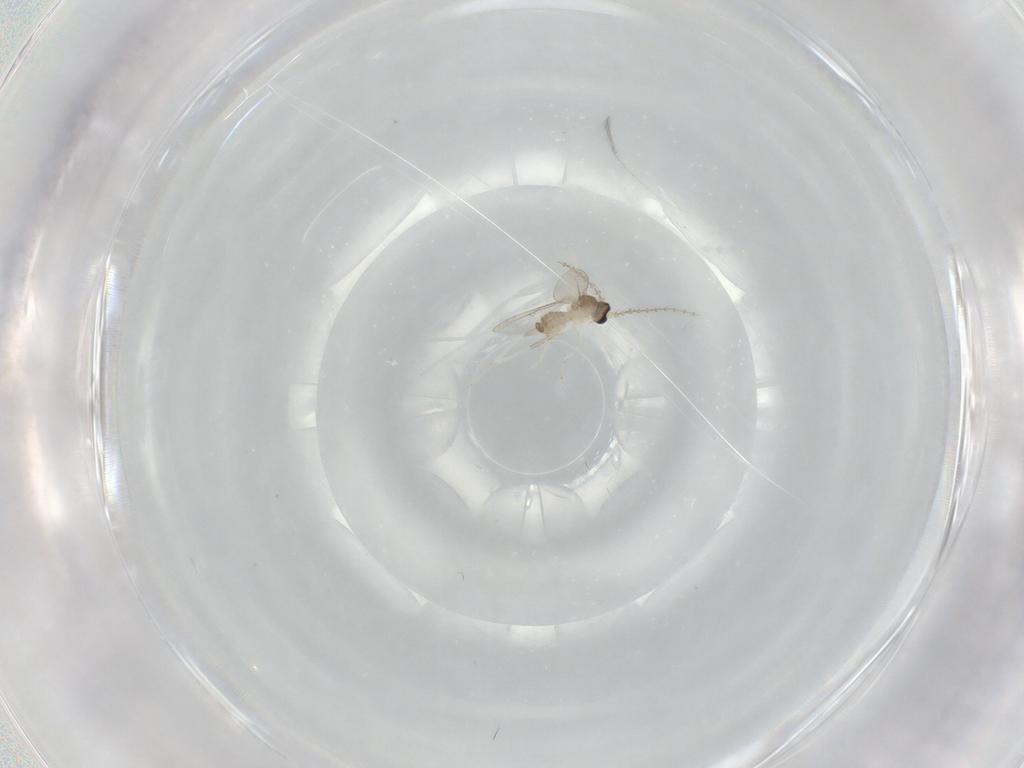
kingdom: Animalia
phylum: Arthropoda
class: Insecta
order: Diptera
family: Cecidomyiidae
